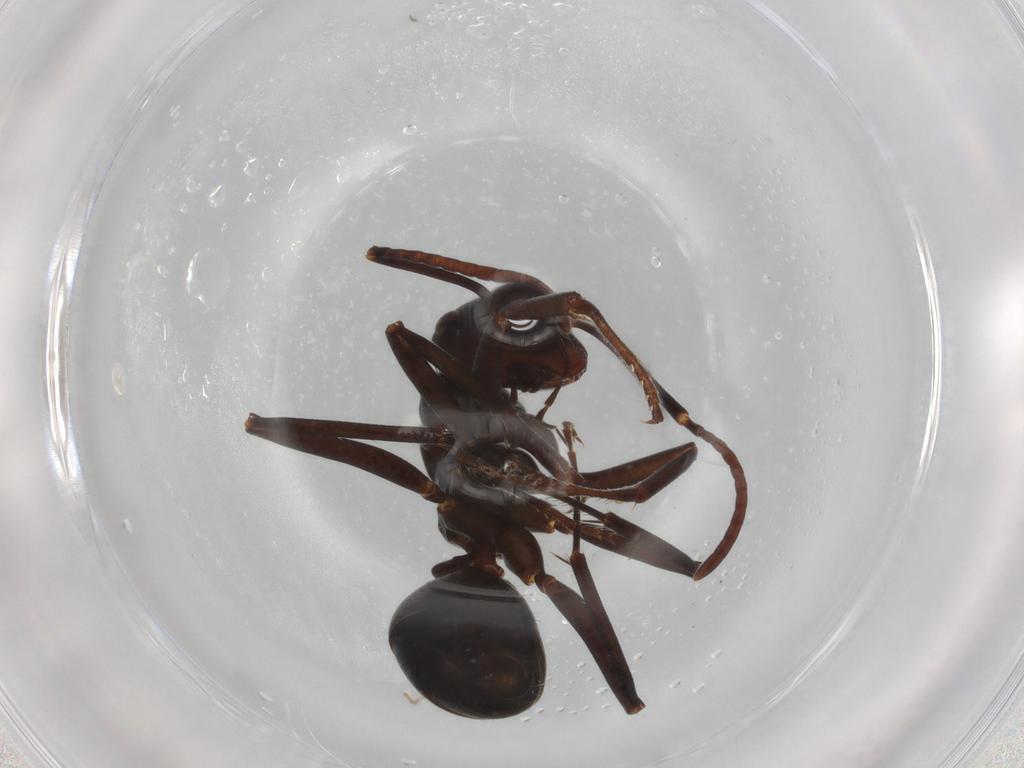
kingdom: Animalia
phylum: Arthropoda
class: Insecta
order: Hymenoptera
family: Formicidae
